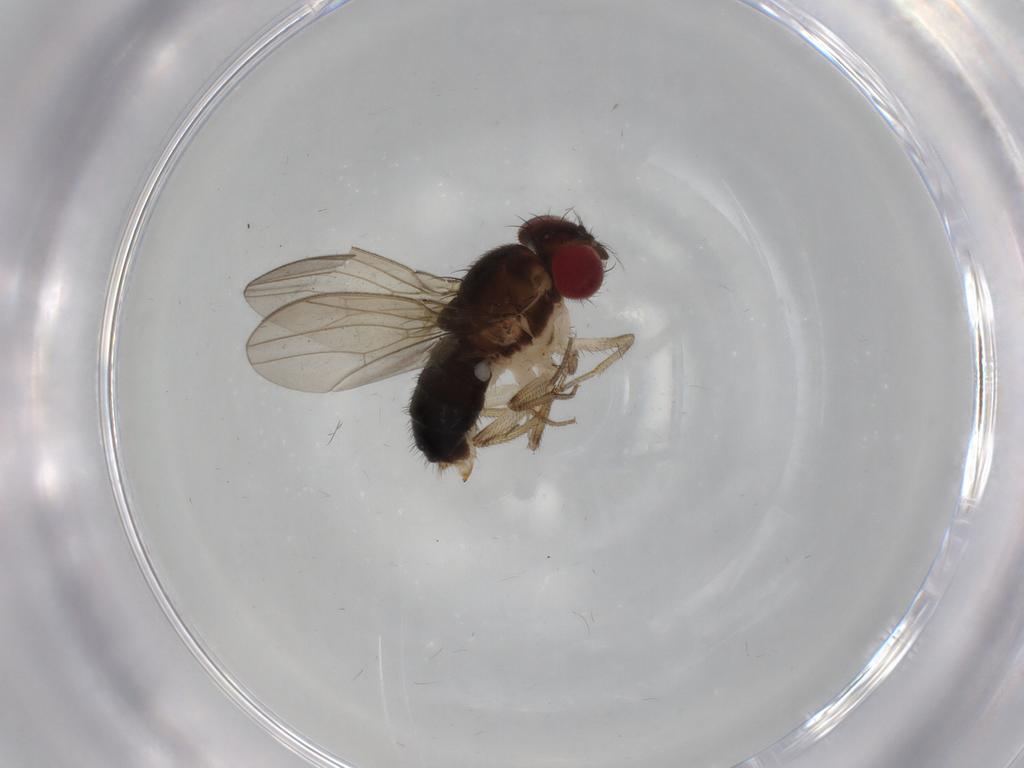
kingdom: Animalia
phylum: Arthropoda
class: Insecta
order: Diptera
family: Drosophilidae
